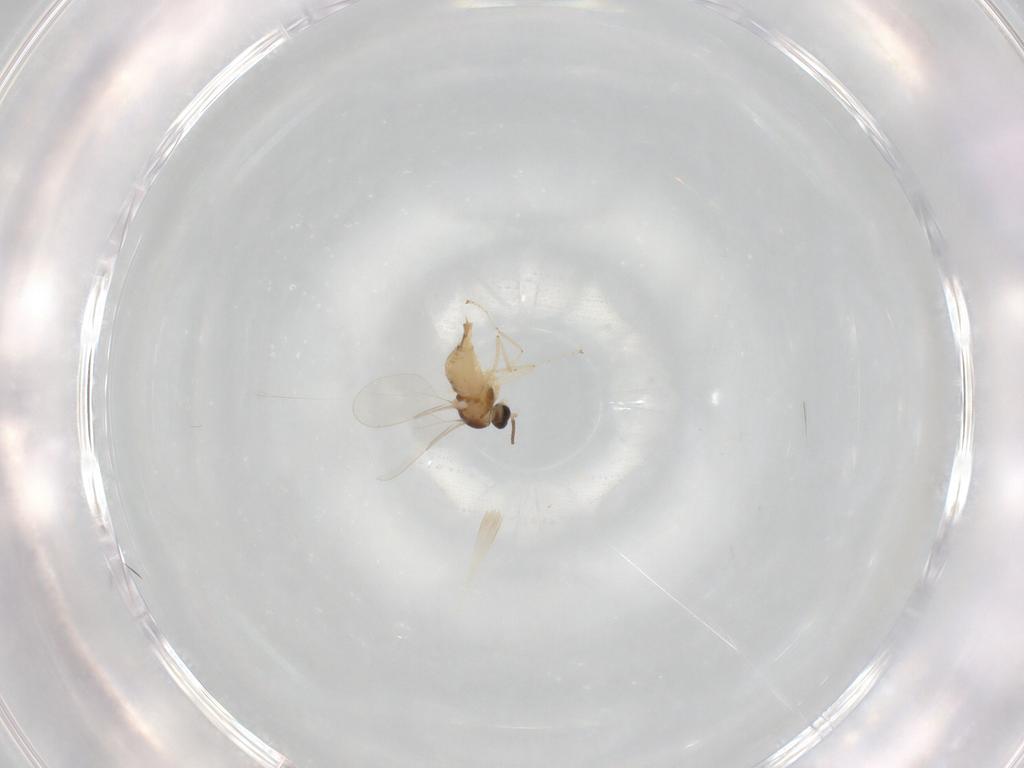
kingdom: Animalia
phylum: Arthropoda
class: Insecta
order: Diptera
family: Cecidomyiidae
